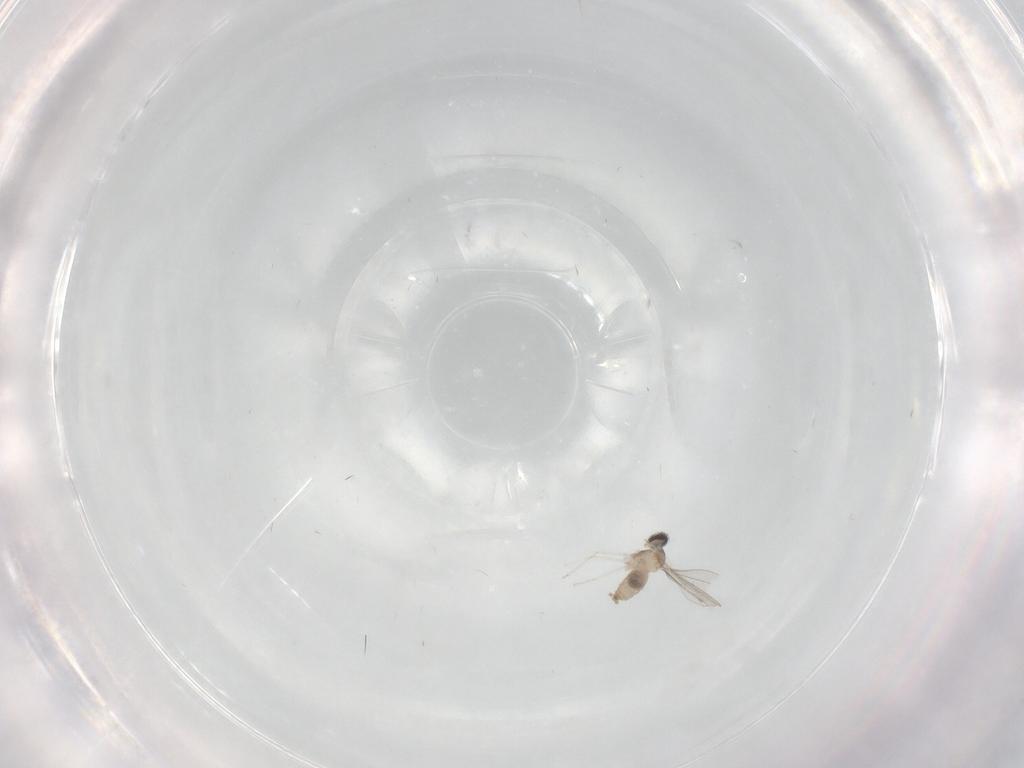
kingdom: Animalia
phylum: Arthropoda
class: Insecta
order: Diptera
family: Cecidomyiidae
